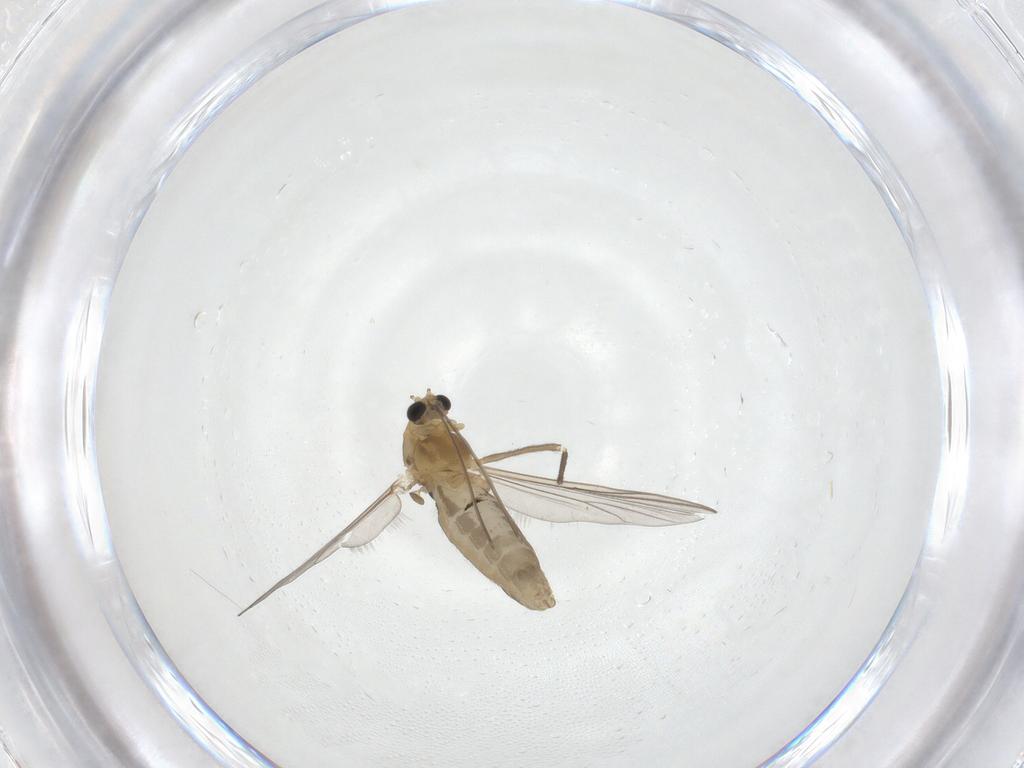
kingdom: Animalia
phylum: Arthropoda
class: Insecta
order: Diptera
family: Chironomidae
